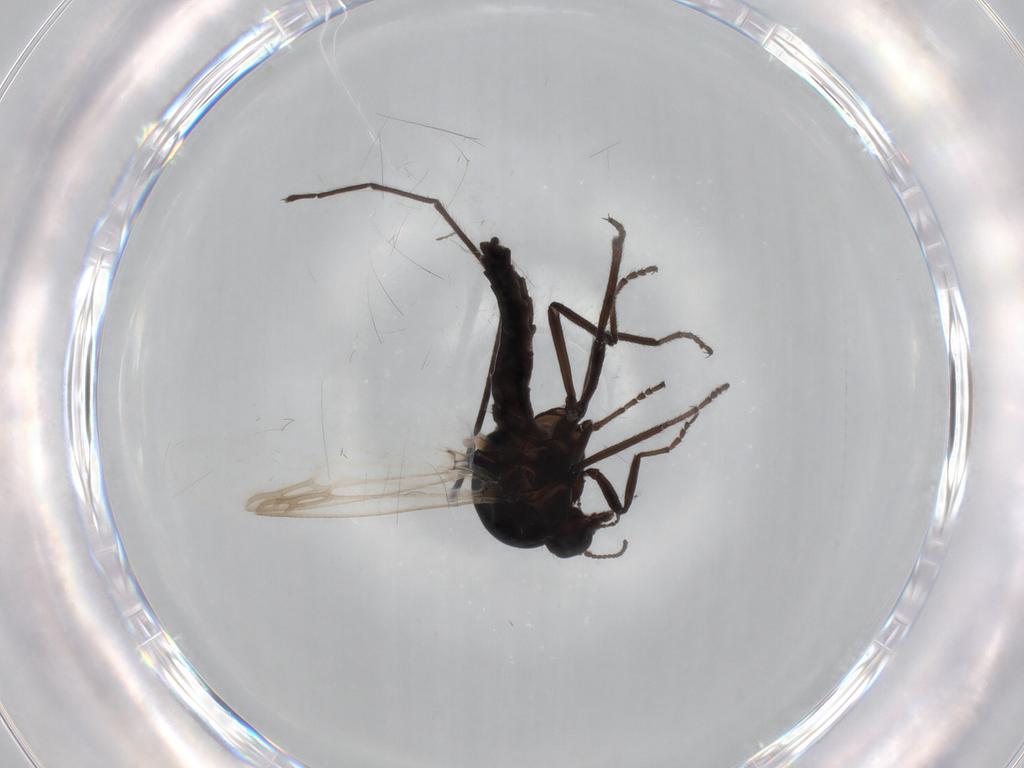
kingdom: Animalia
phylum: Arthropoda
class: Insecta
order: Diptera
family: Ceratopogonidae
